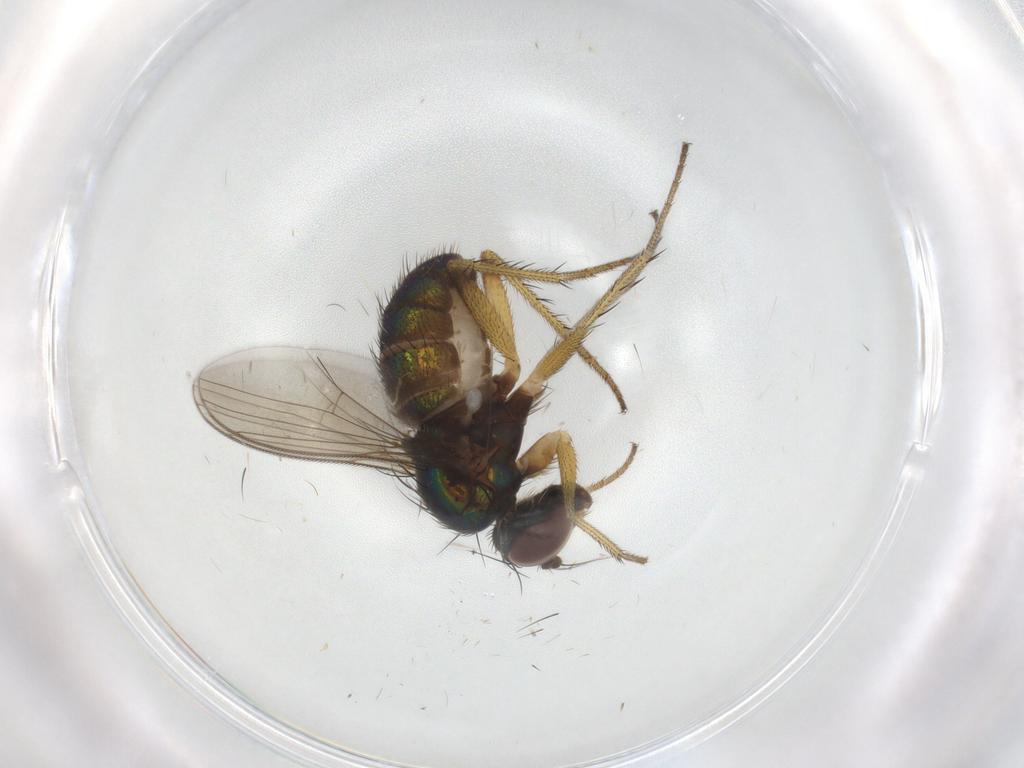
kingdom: Animalia
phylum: Arthropoda
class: Insecta
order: Diptera
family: Dolichopodidae
